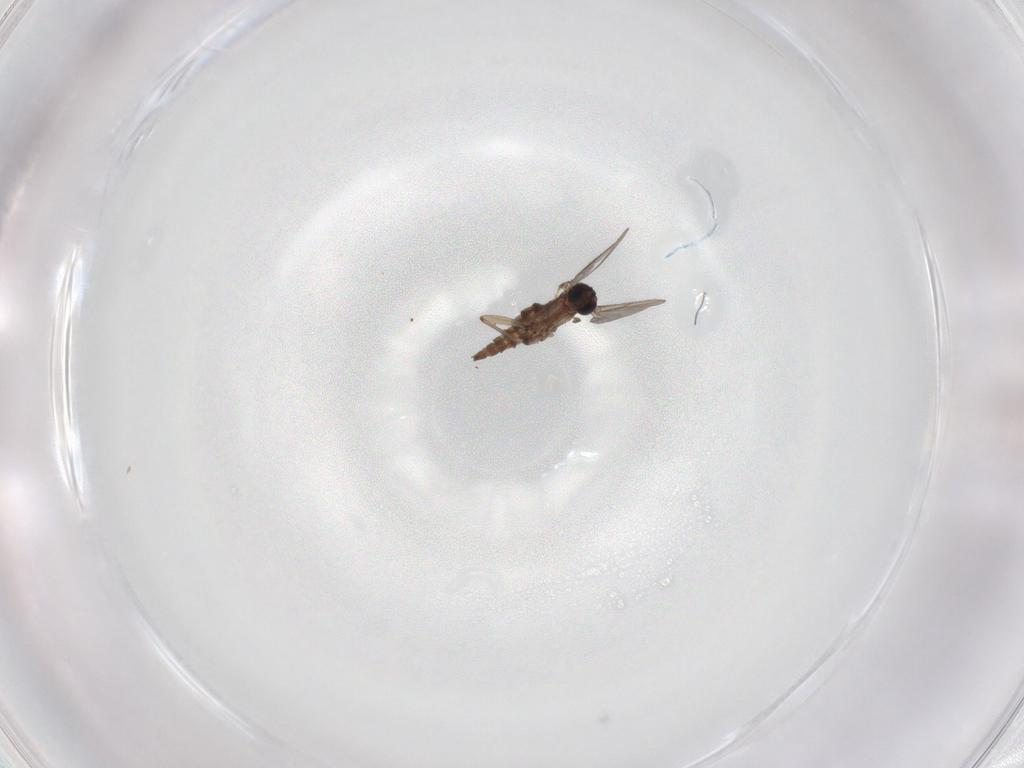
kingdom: Animalia
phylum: Arthropoda
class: Insecta
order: Diptera
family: Sciaridae
